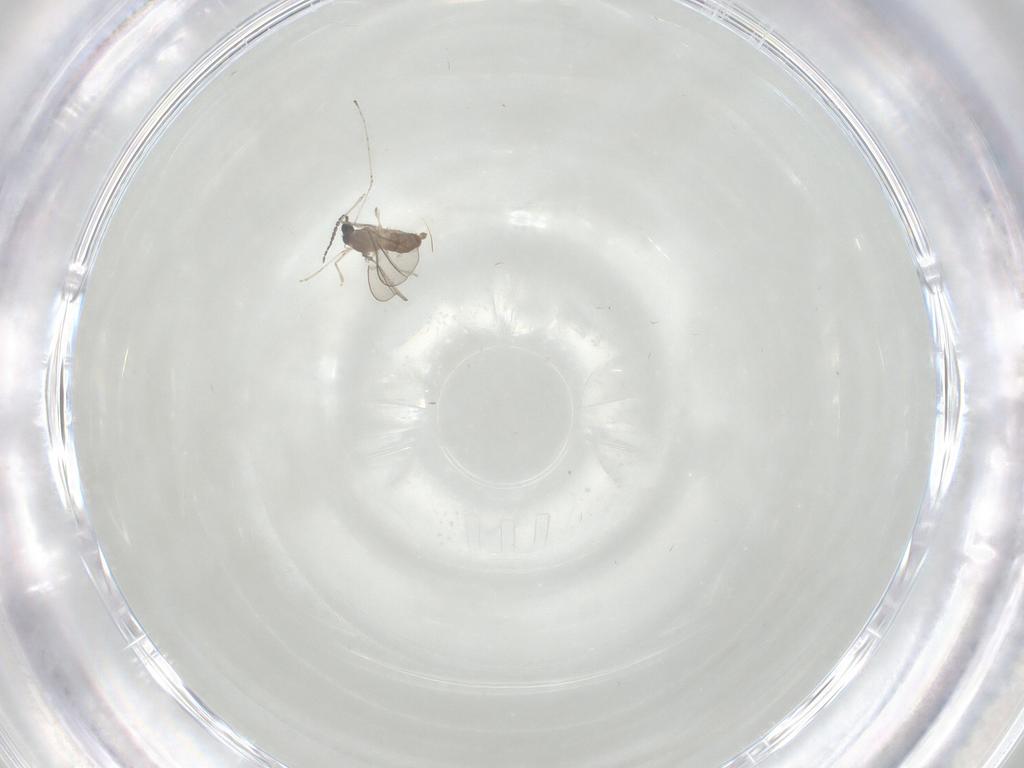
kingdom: Animalia
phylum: Arthropoda
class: Insecta
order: Diptera
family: Cecidomyiidae
